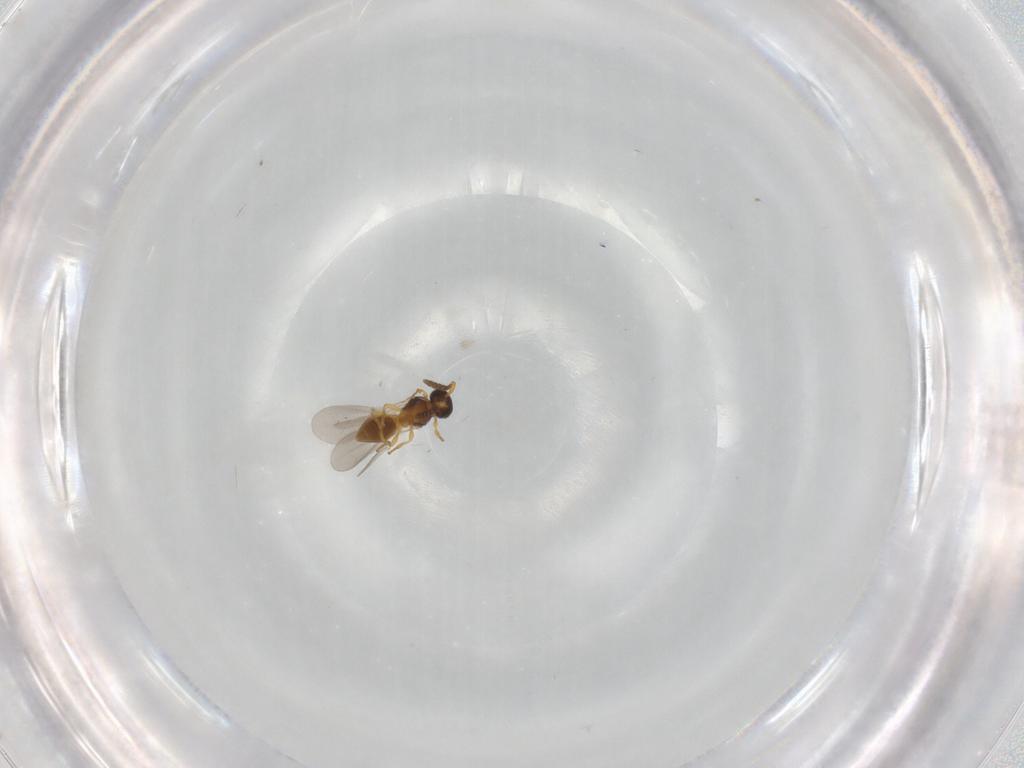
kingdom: Animalia
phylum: Arthropoda
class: Insecta
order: Hymenoptera
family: Platygastridae
